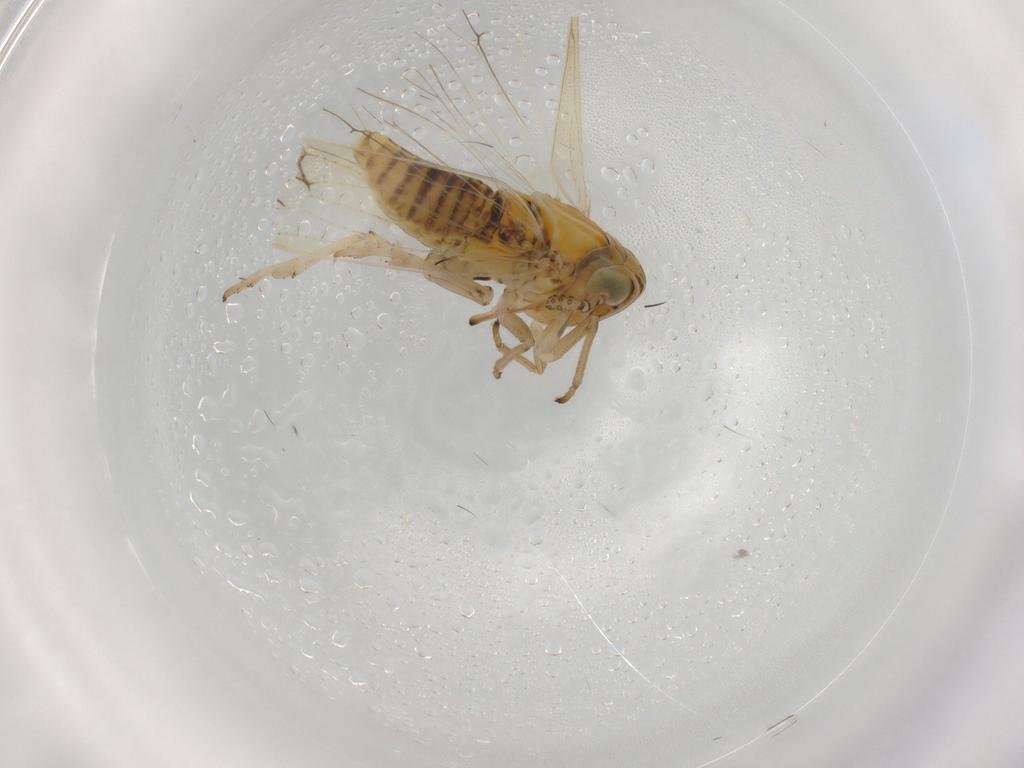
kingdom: Animalia
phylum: Arthropoda
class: Insecta
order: Hemiptera
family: Delphacidae
